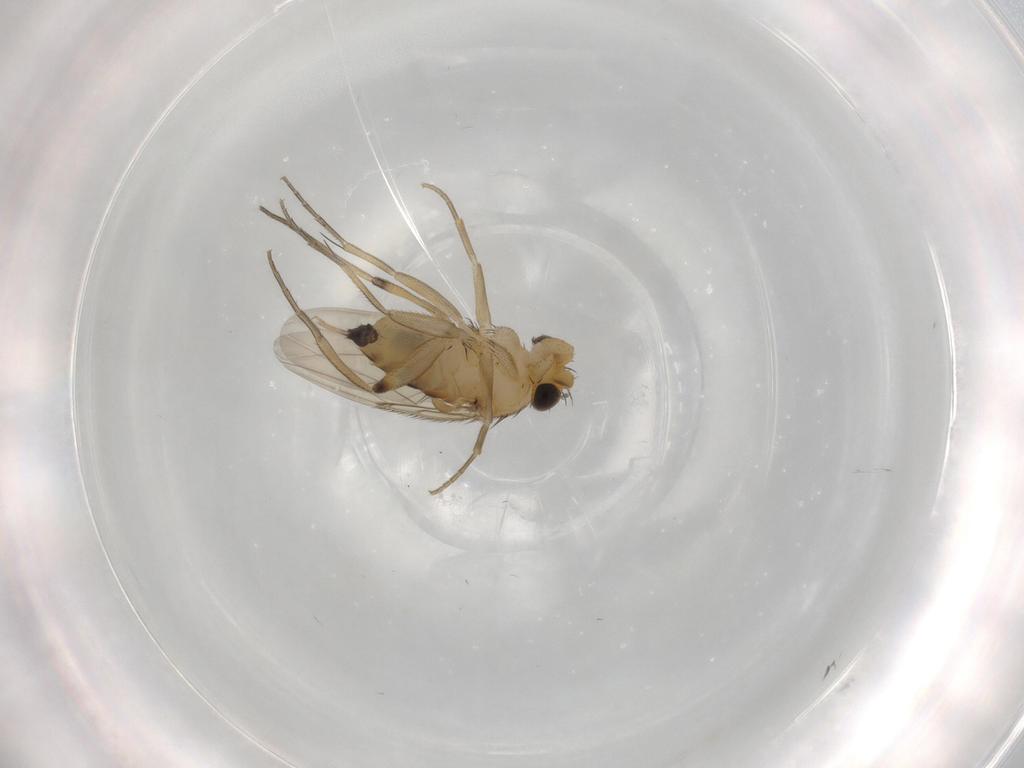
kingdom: Animalia
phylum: Arthropoda
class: Insecta
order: Diptera
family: Phoridae
